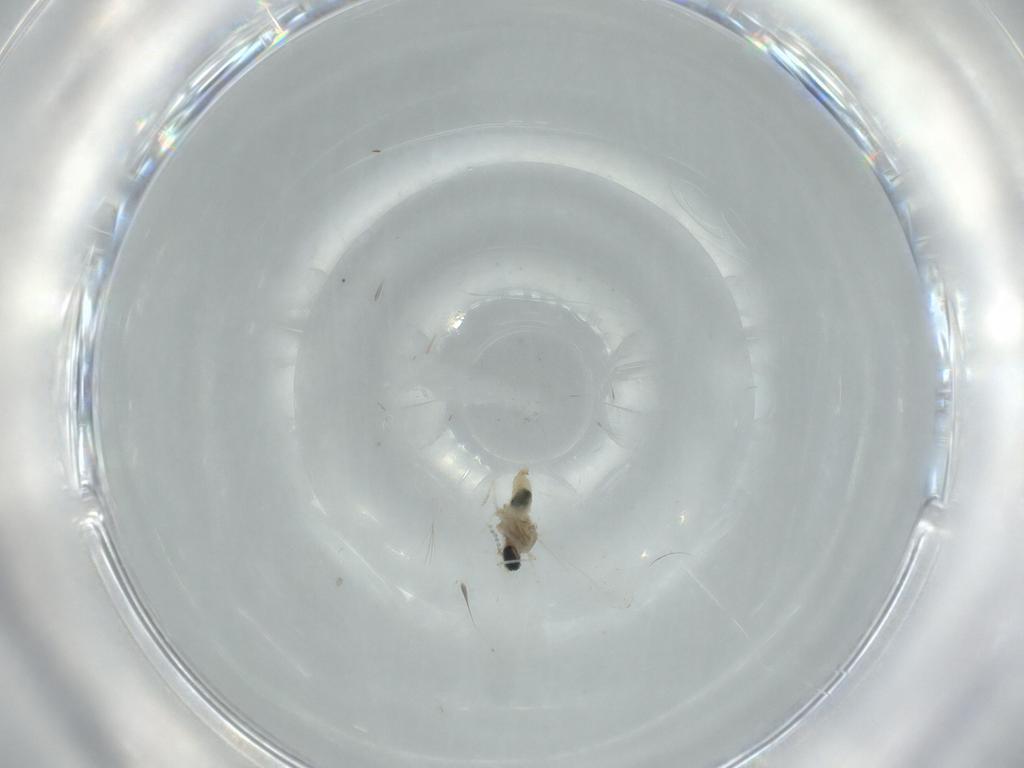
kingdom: Animalia
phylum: Arthropoda
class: Insecta
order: Diptera
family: Cecidomyiidae
